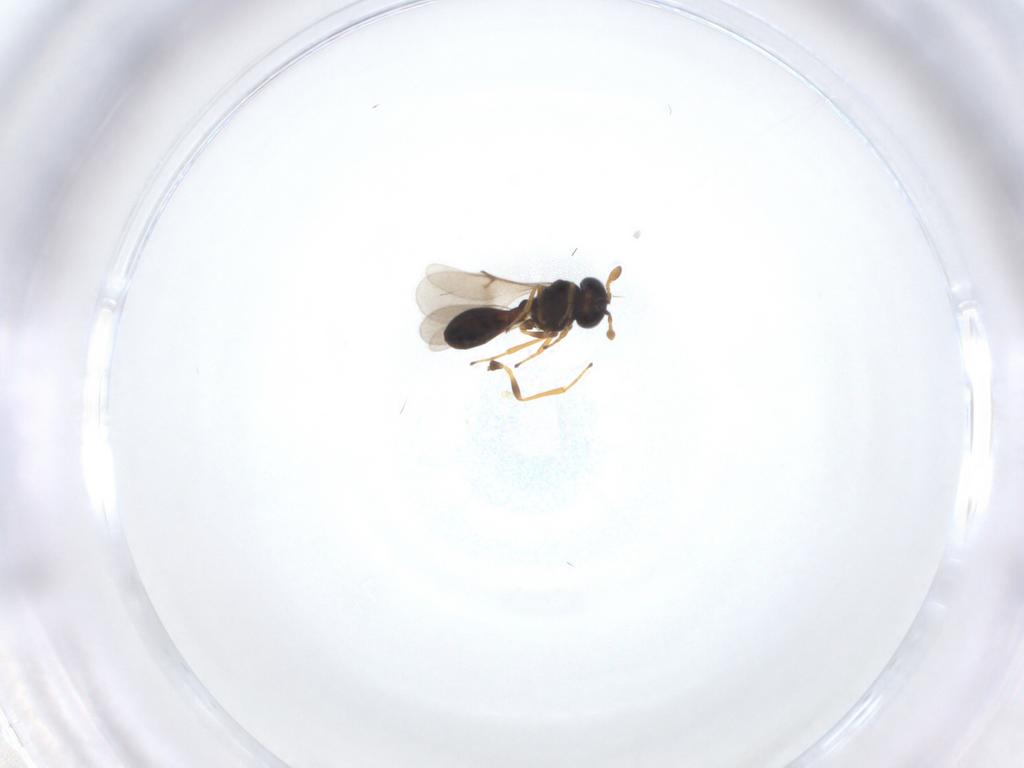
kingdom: Animalia
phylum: Arthropoda
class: Insecta
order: Hymenoptera
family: Scelionidae
